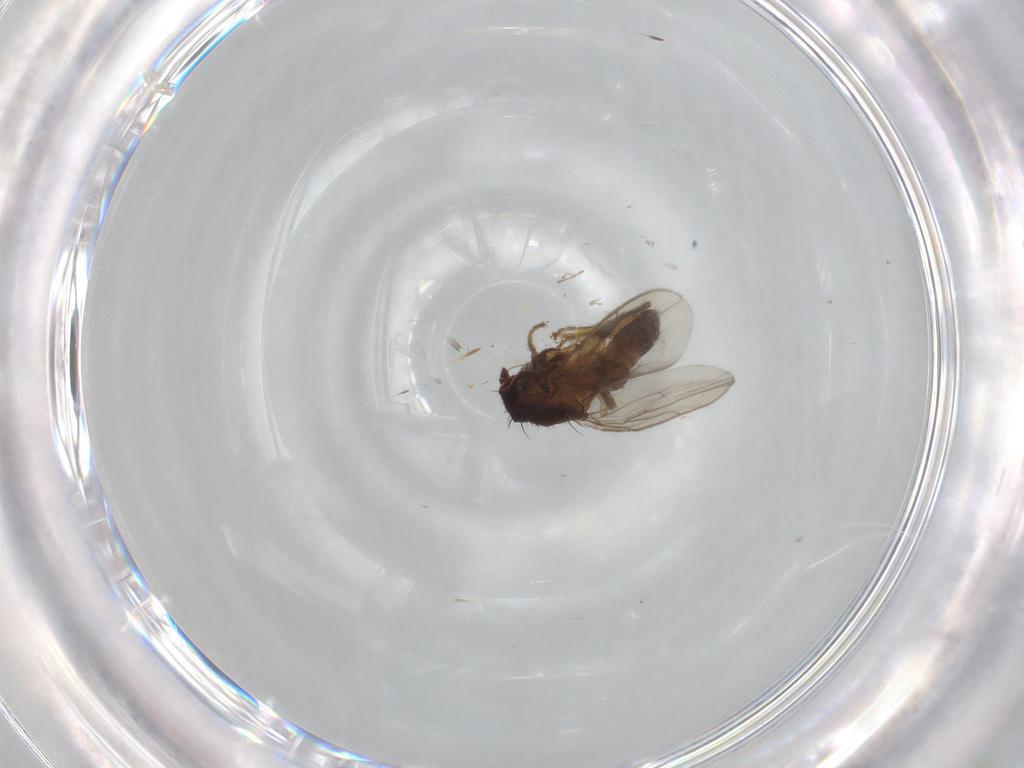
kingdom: Animalia
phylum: Arthropoda
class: Insecta
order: Diptera
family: Sphaeroceridae
